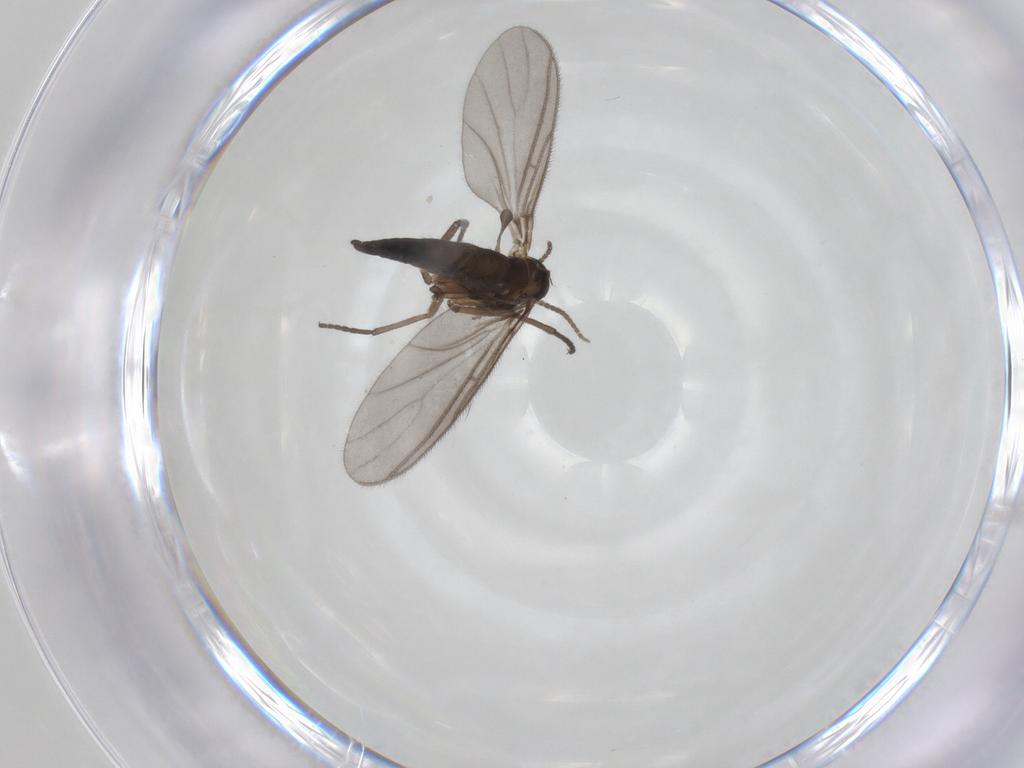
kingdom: Animalia
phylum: Arthropoda
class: Insecta
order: Diptera
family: Sciaridae
